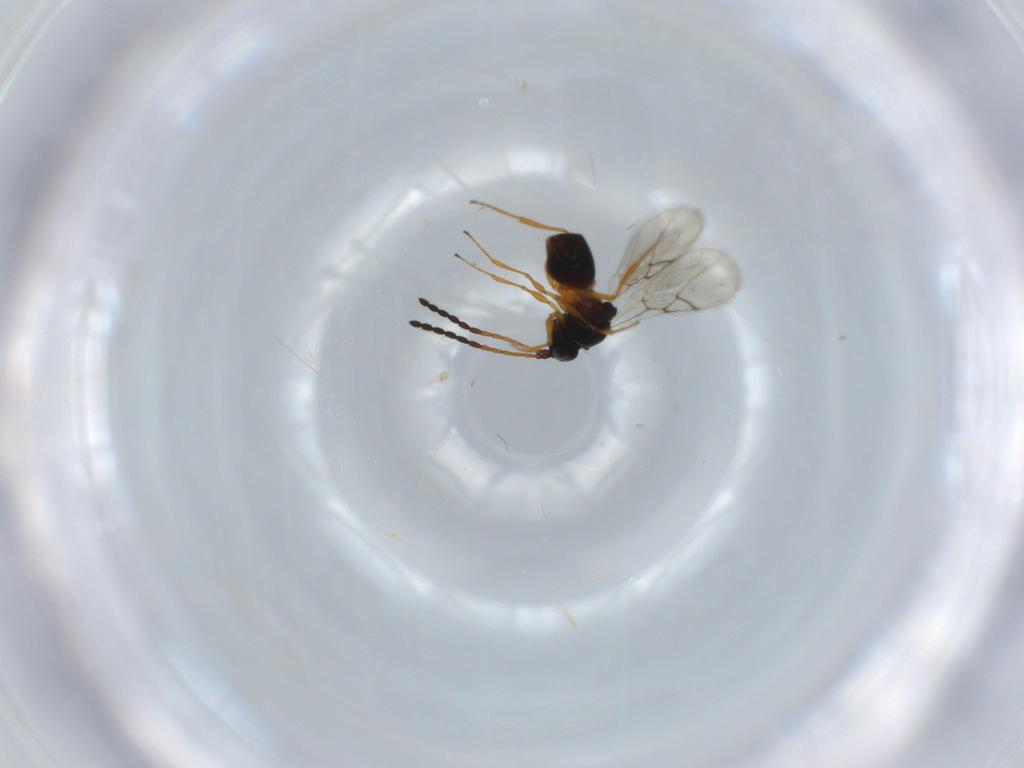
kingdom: Animalia
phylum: Arthropoda
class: Insecta
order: Hymenoptera
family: Figitidae
